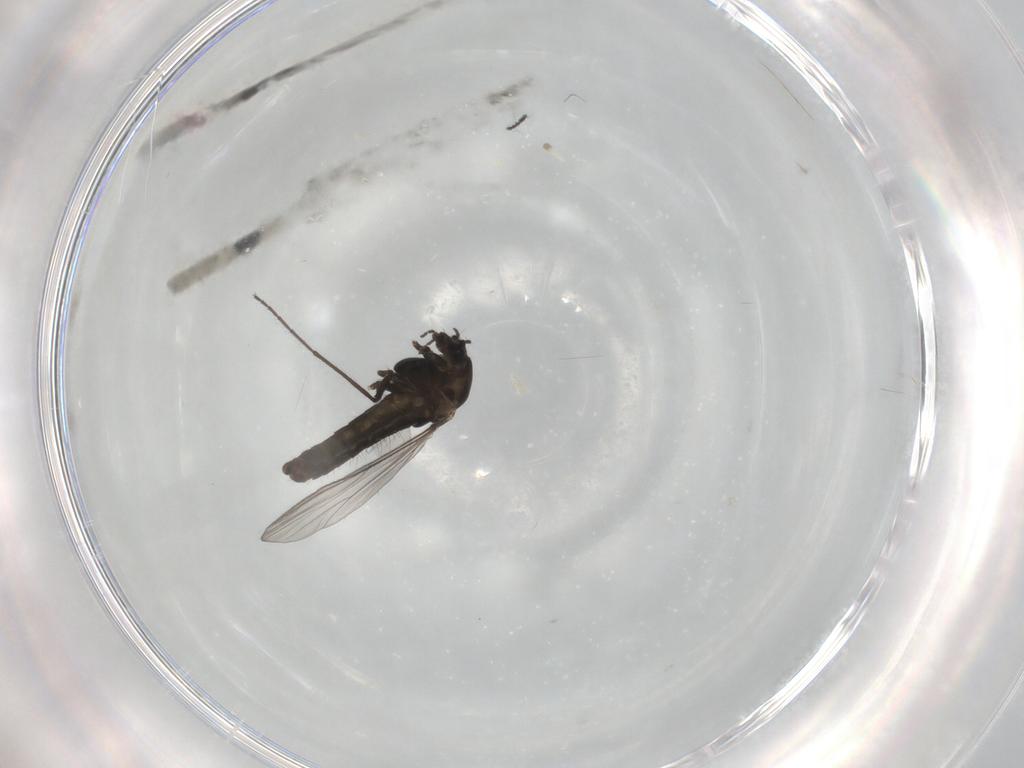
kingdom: Animalia
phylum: Arthropoda
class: Insecta
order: Diptera
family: Chironomidae
